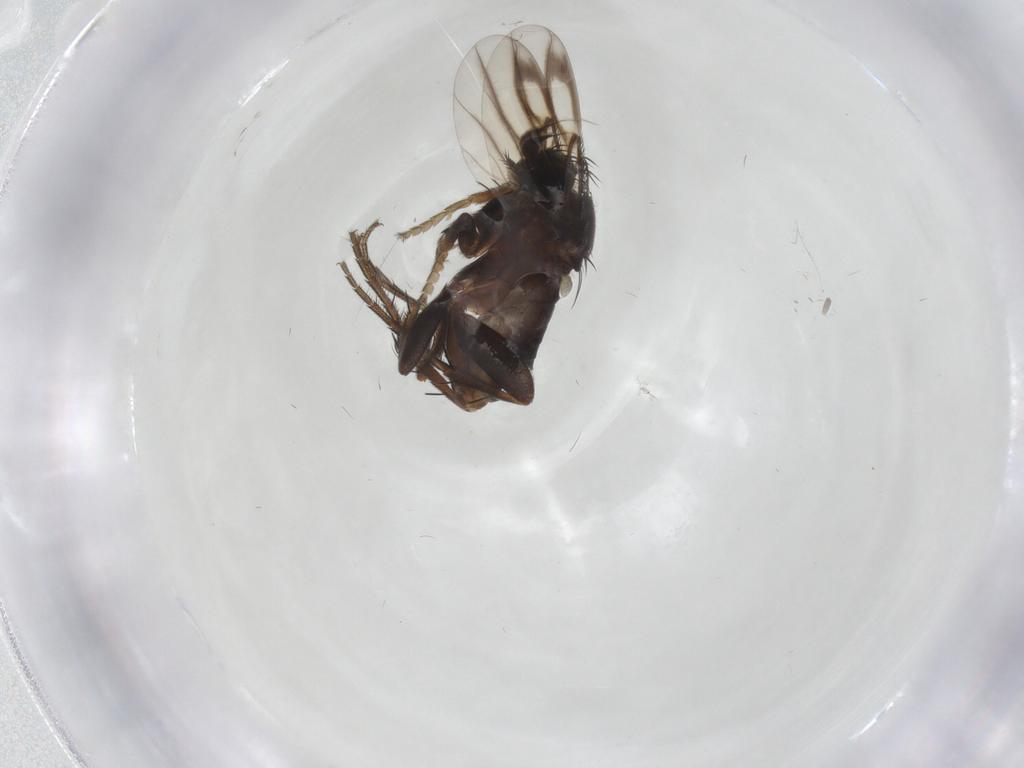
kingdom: Animalia
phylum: Arthropoda
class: Insecta
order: Diptera
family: Phoridae
